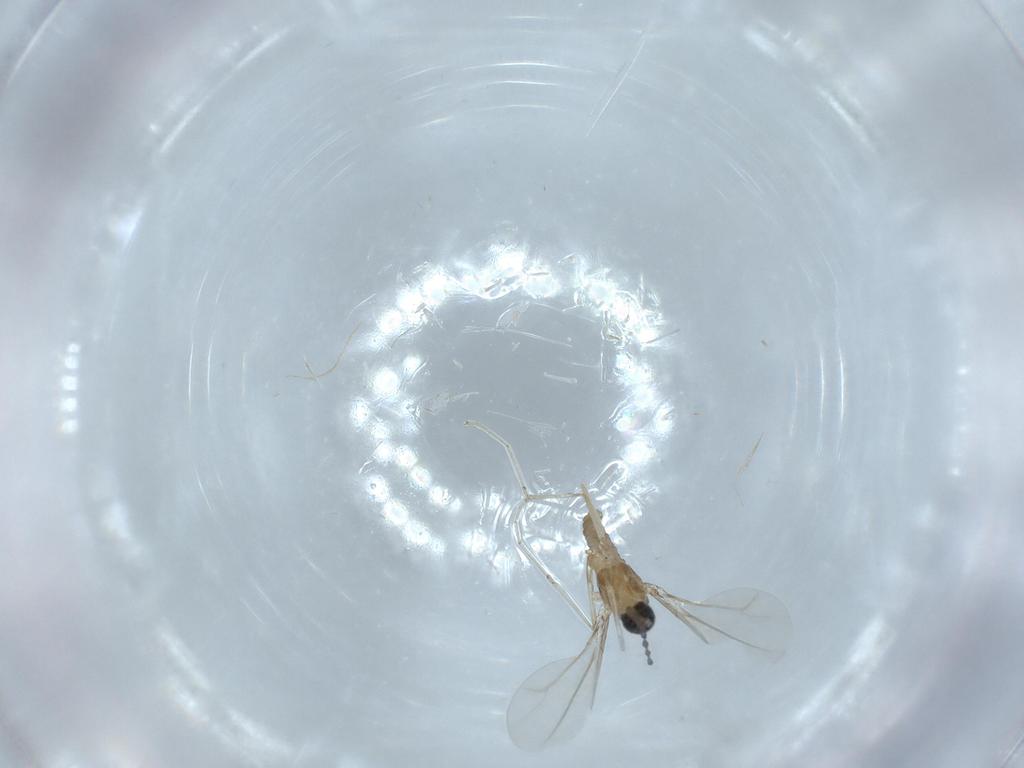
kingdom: Animalia
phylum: Arthropoda
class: Insecta
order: Diptera
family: Cecidomyiidae
